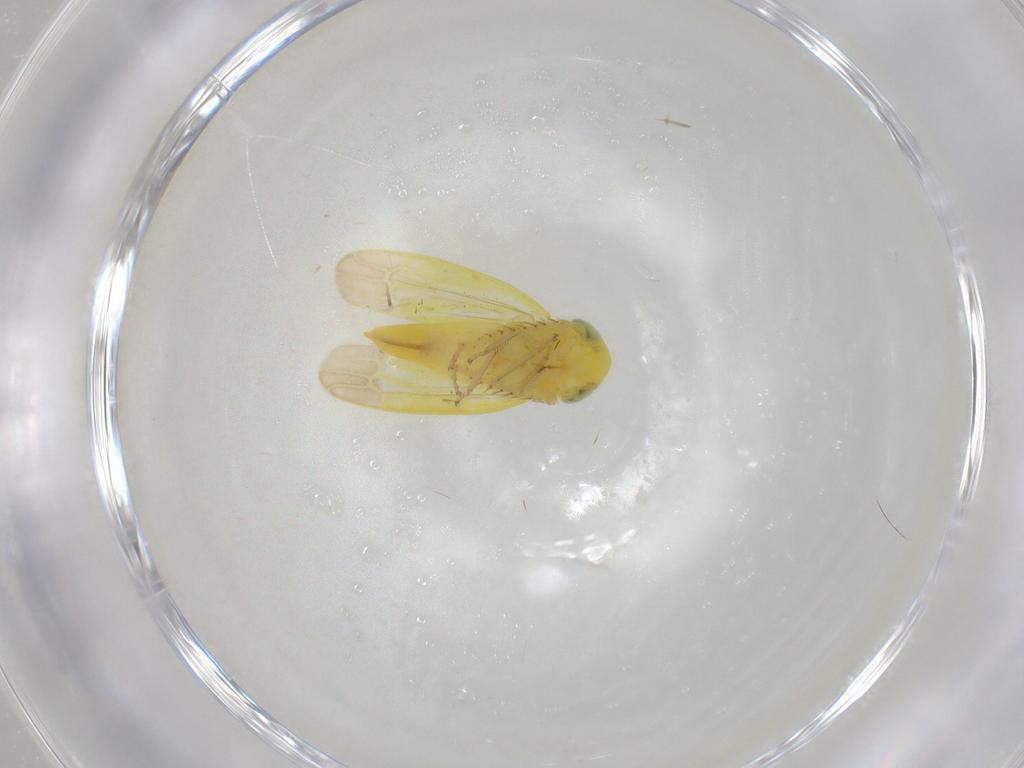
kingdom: Animalia
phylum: Arthropoda
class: Insecta
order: Hemiptera
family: Cicadellidae
